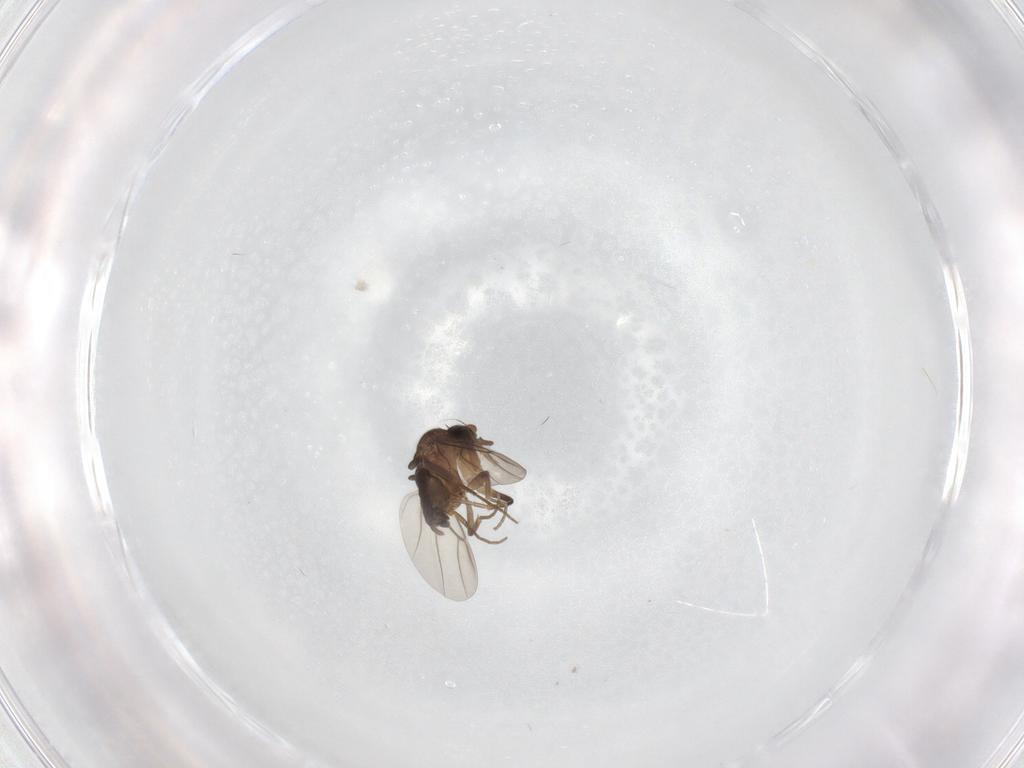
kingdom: Animalia
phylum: Arthropoda
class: Insecta
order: Diptera
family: Phoridae
